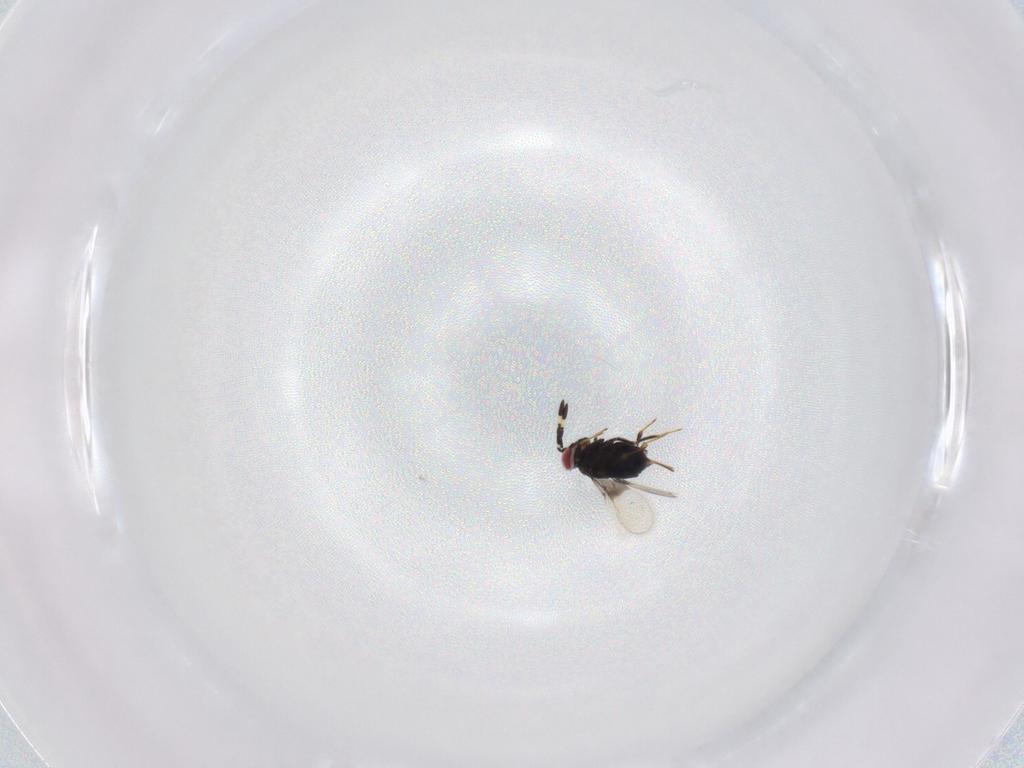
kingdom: Animalia
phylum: Arthropoda
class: Insecta
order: Hymenoptera
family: Azotidae
